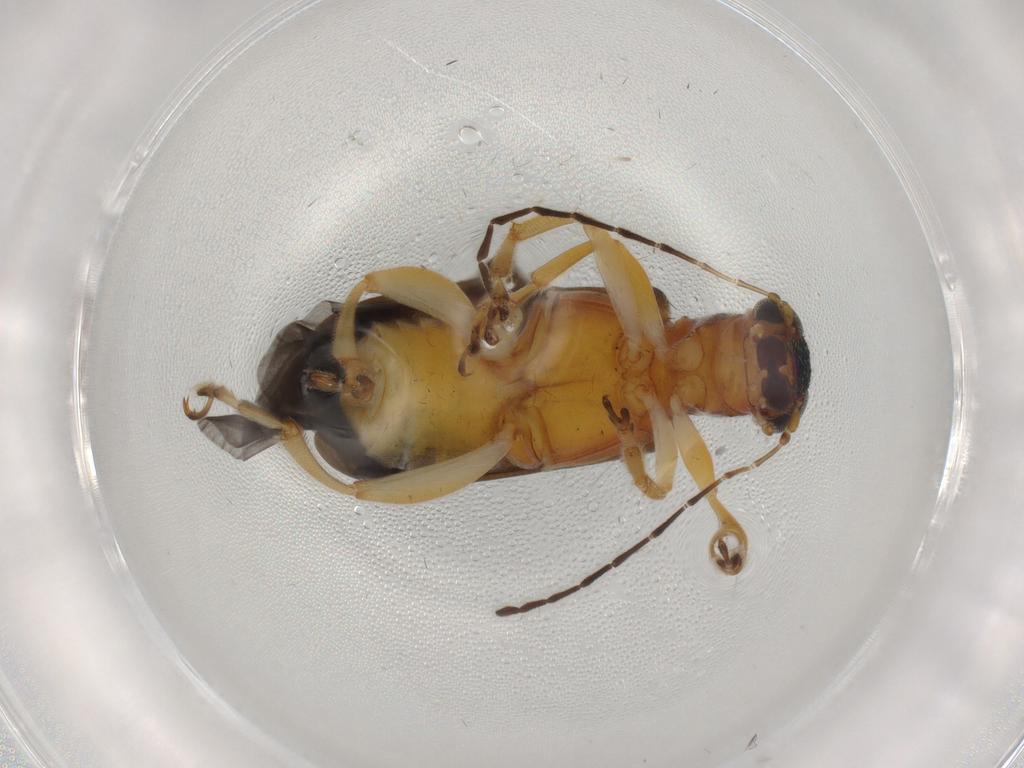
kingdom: Animalia
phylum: Arthropoda
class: Insecta
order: Coleoptera
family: Chrysomelidae
